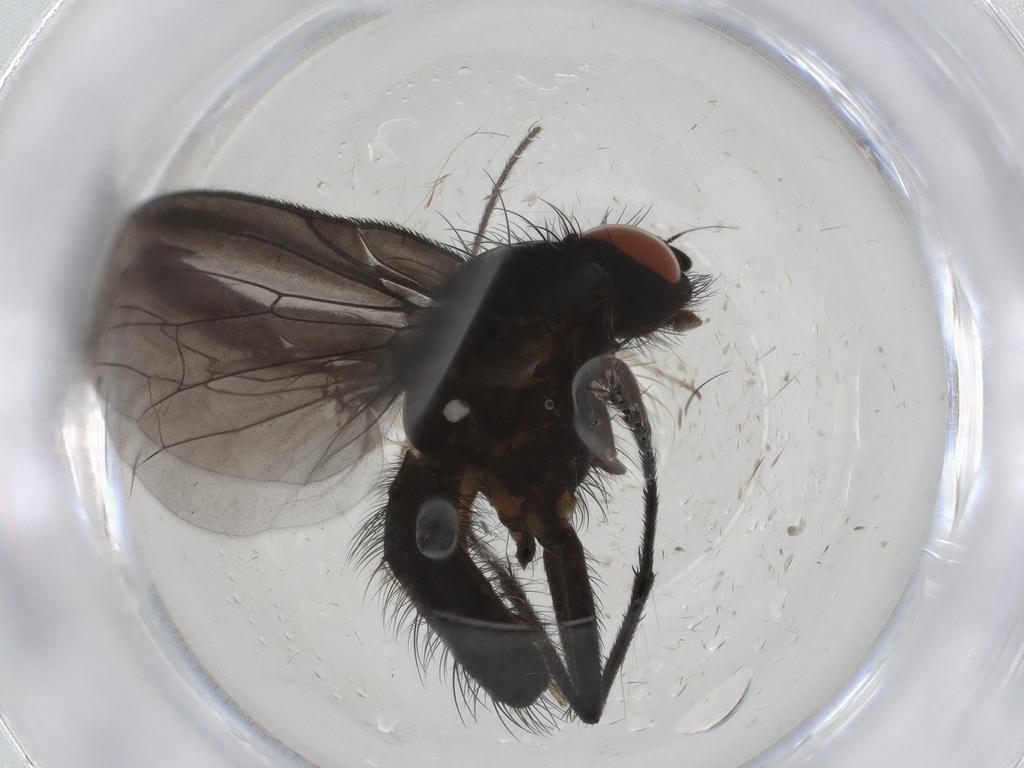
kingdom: Animalia
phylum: Arthropoda
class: Insecta
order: Diptera
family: Anthomyiidae
